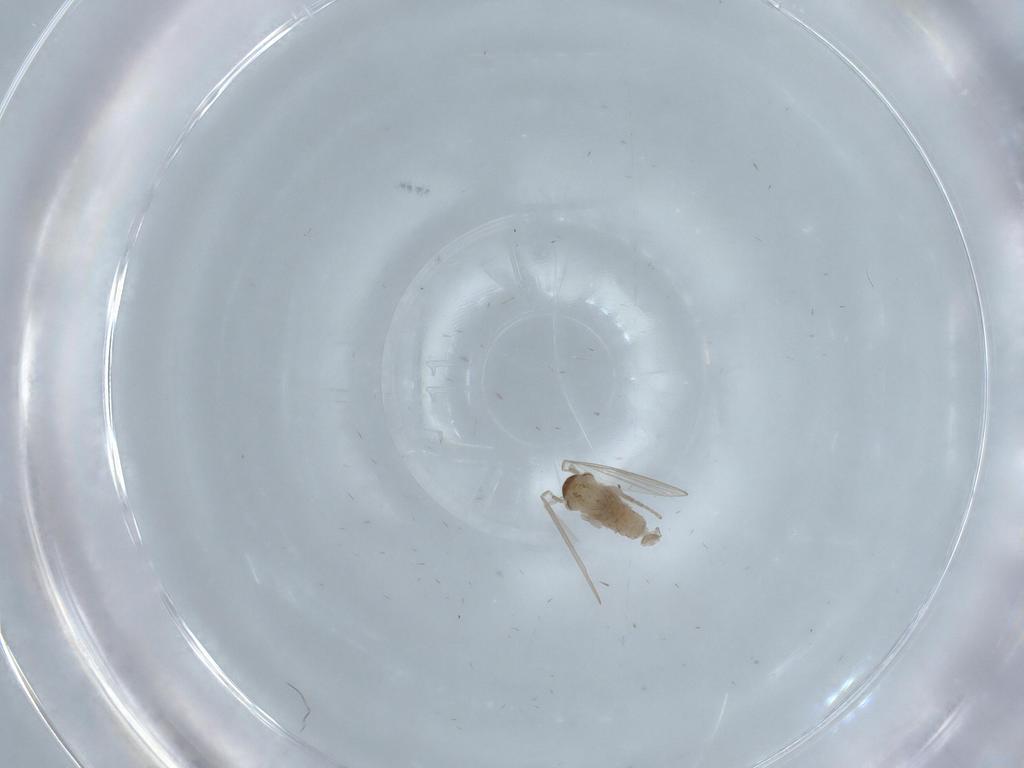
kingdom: Animalia
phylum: Arthropoda
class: Insecta
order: Diptera
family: Psychodidae
